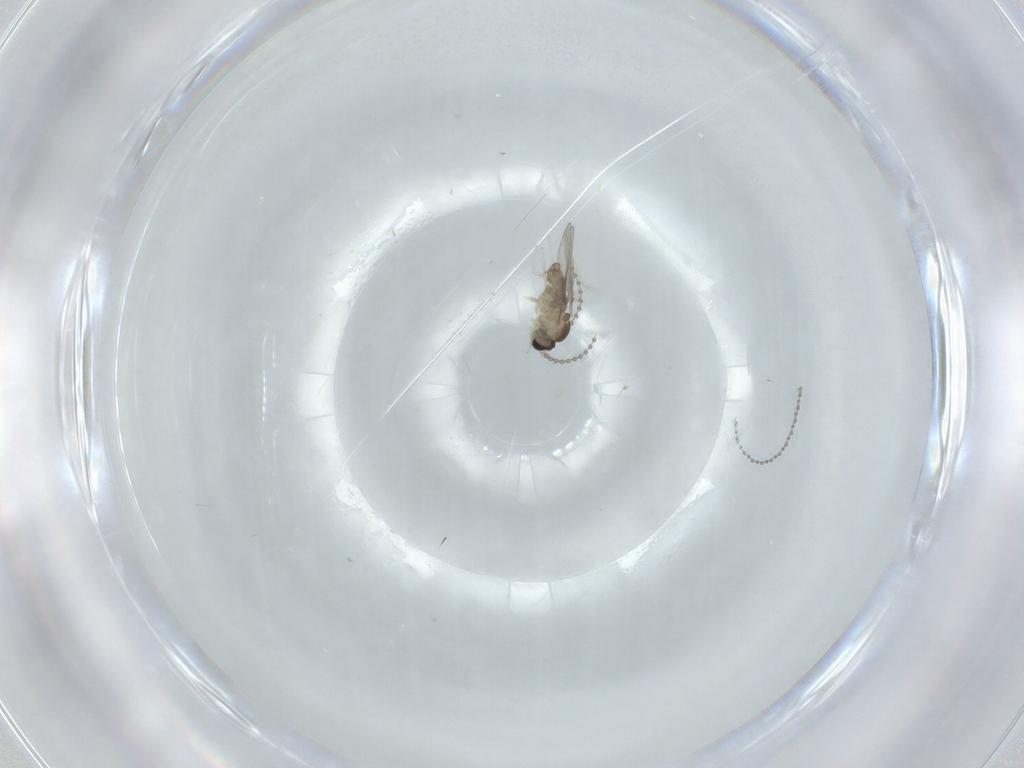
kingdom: Animalia
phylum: Arthropoda
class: Insecta
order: Diptera
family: Cecidomyiidae
